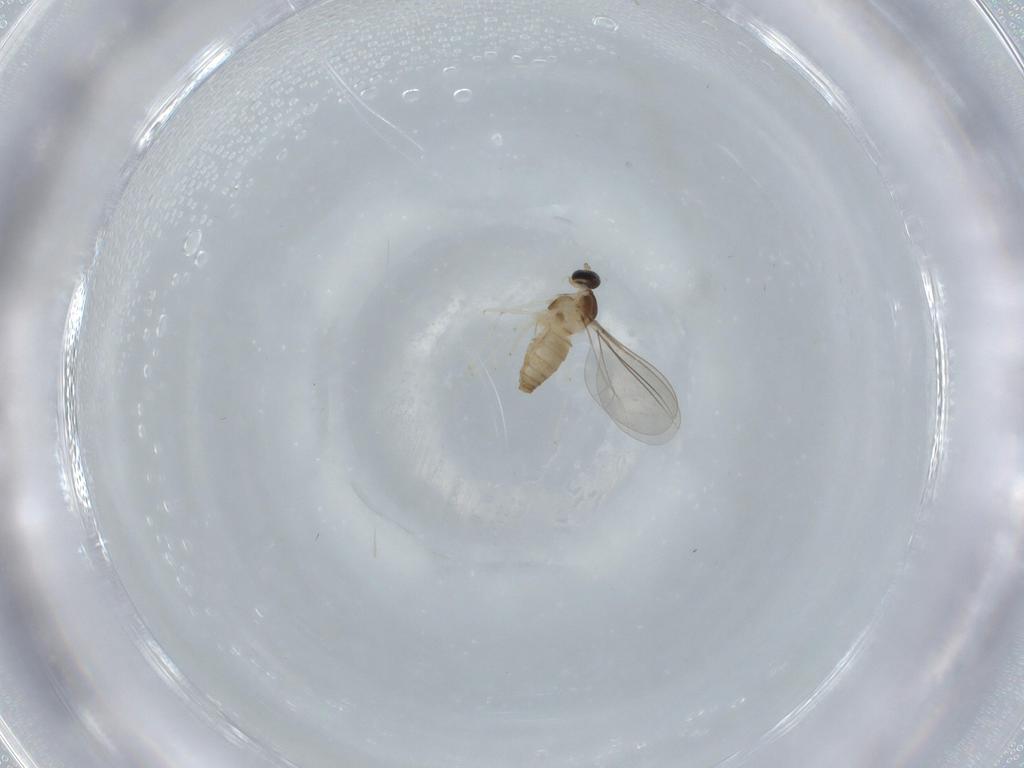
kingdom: Animalia
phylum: Arthropoda
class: Insecta
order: Diptera
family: Cecidomyiidae
